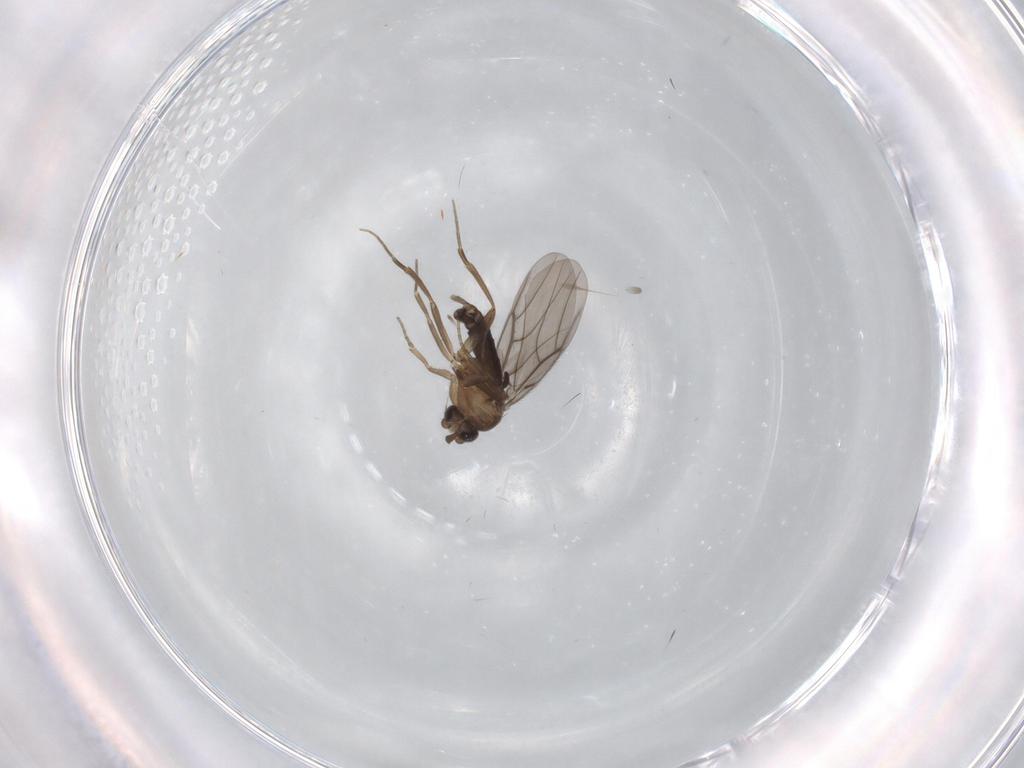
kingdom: Animalia
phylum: Arthropoda
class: Insecta
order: Diptera
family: Phoridae
